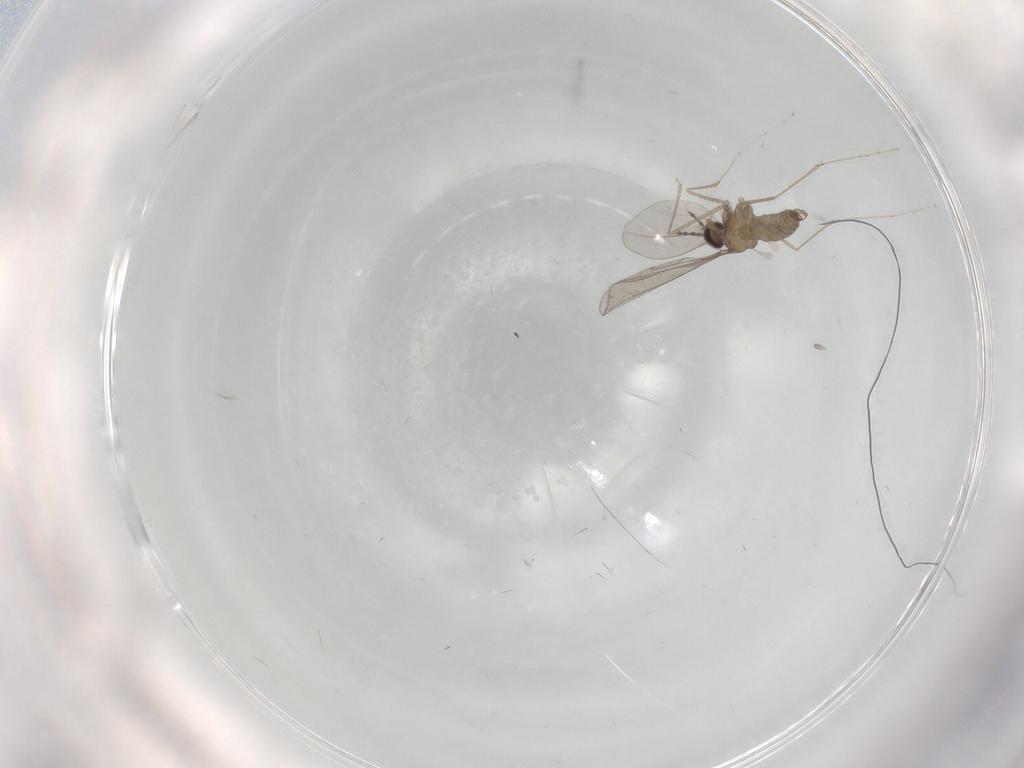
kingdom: Animalia
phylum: Arthropoda
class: Insecta
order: Diptera
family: Cecidomyiidae
